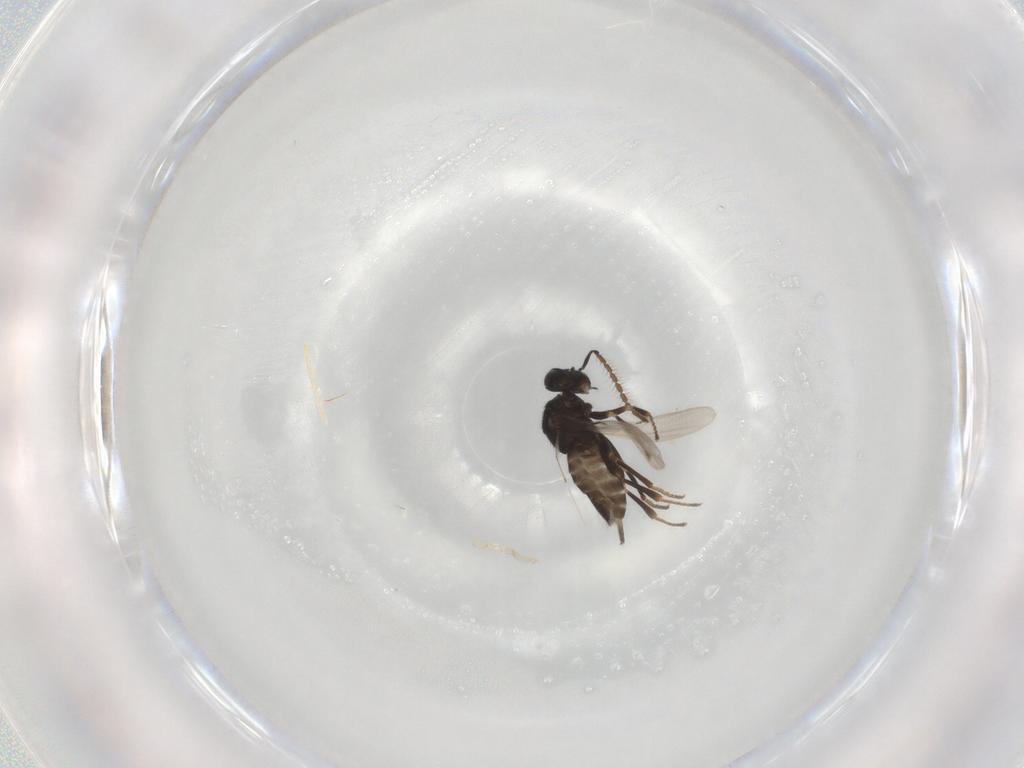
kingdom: Animalia
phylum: Arthropoda
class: Insecta
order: Hymenoptera
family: Encyrtidae
